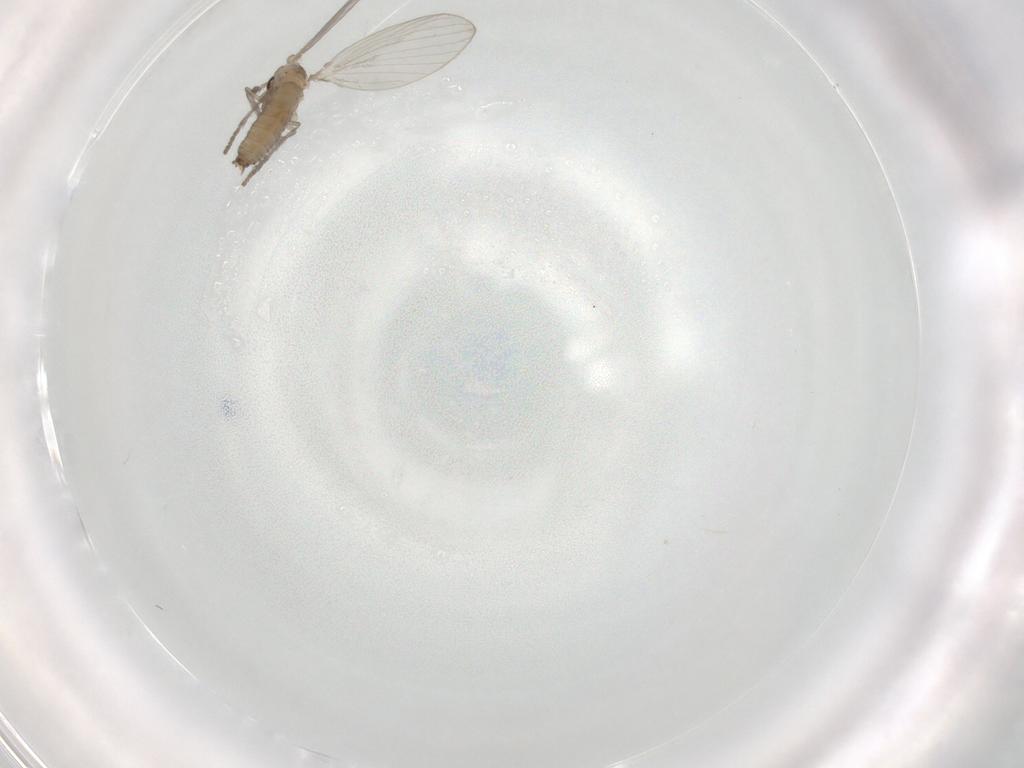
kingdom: Animalia
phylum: Arthropoda
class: Insecta
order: Diptera
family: Psychodidae
